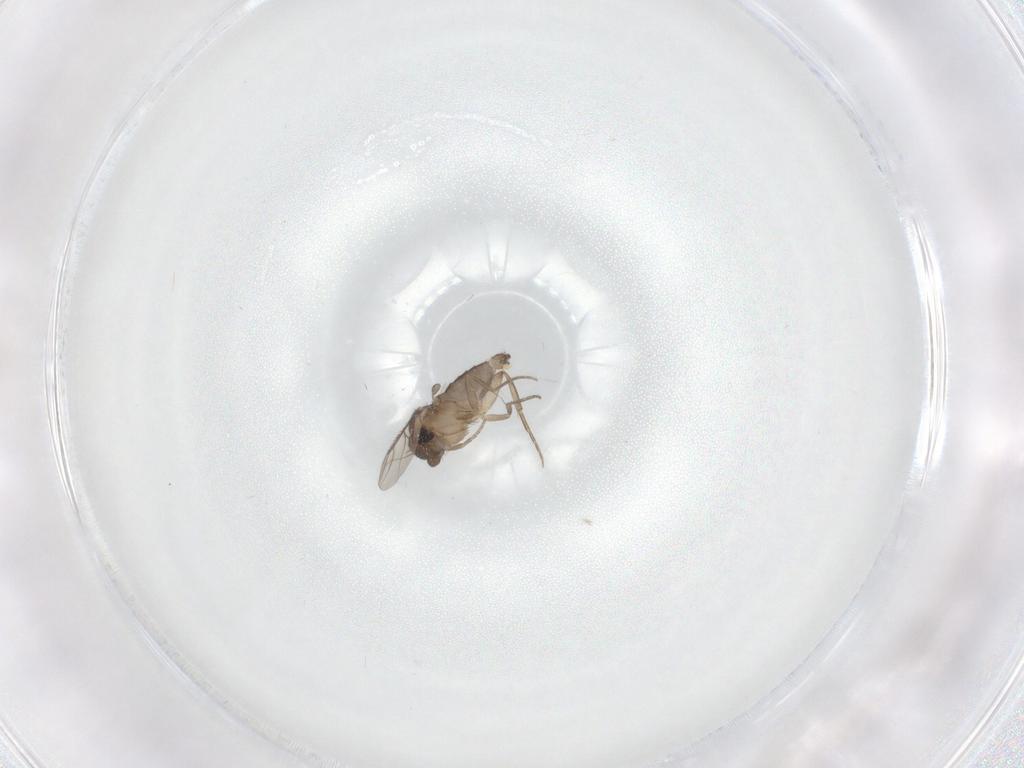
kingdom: Animalia
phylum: Arthropoda
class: Insecta
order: Diptera
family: Phoridae
